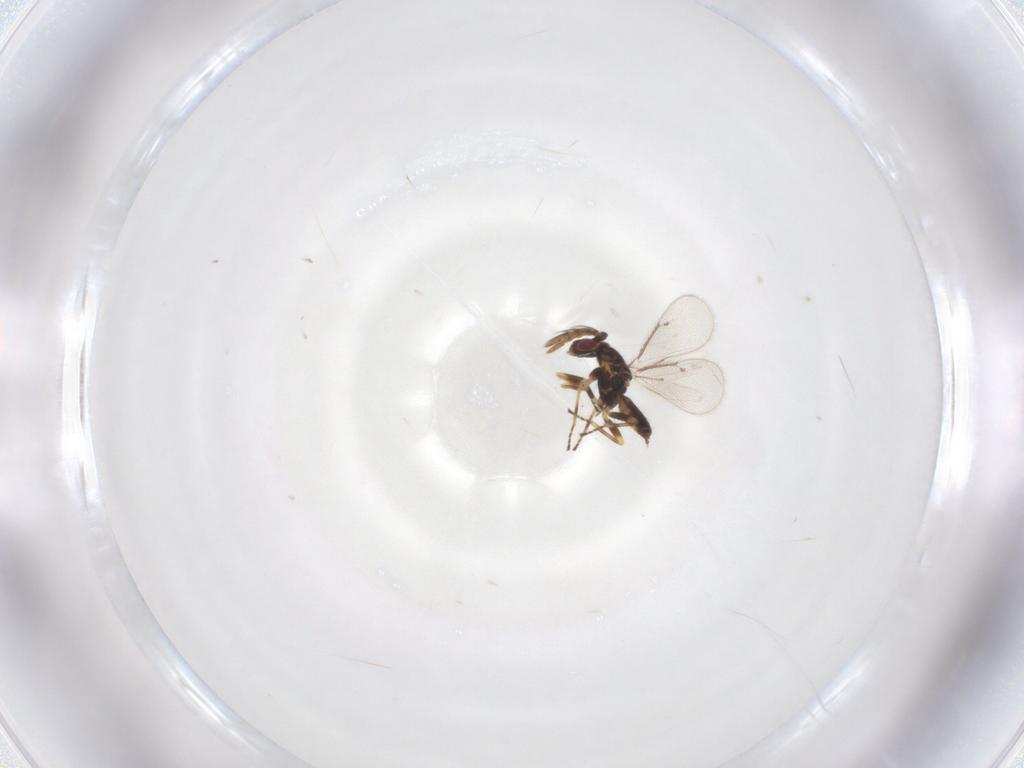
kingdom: Animalia
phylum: Arthropoda
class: Insecta
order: Hymenoptera
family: Eulophidae
